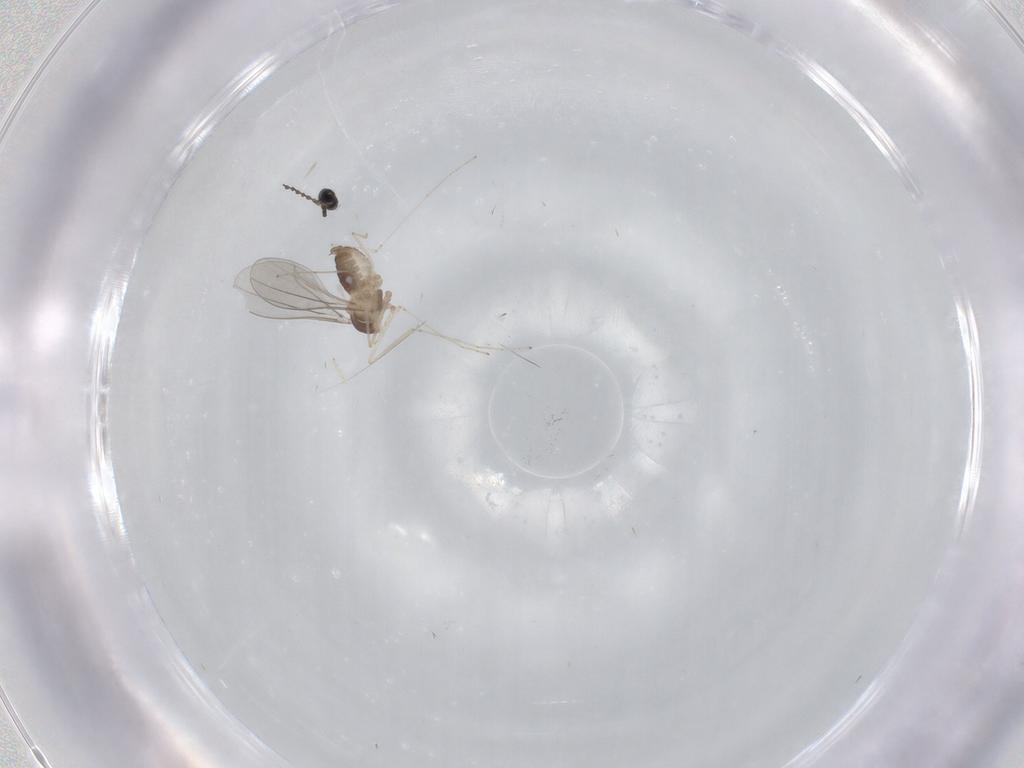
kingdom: Animalia
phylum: Arthropoda
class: Insecta
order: Diptera
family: Cecidomyiidae
